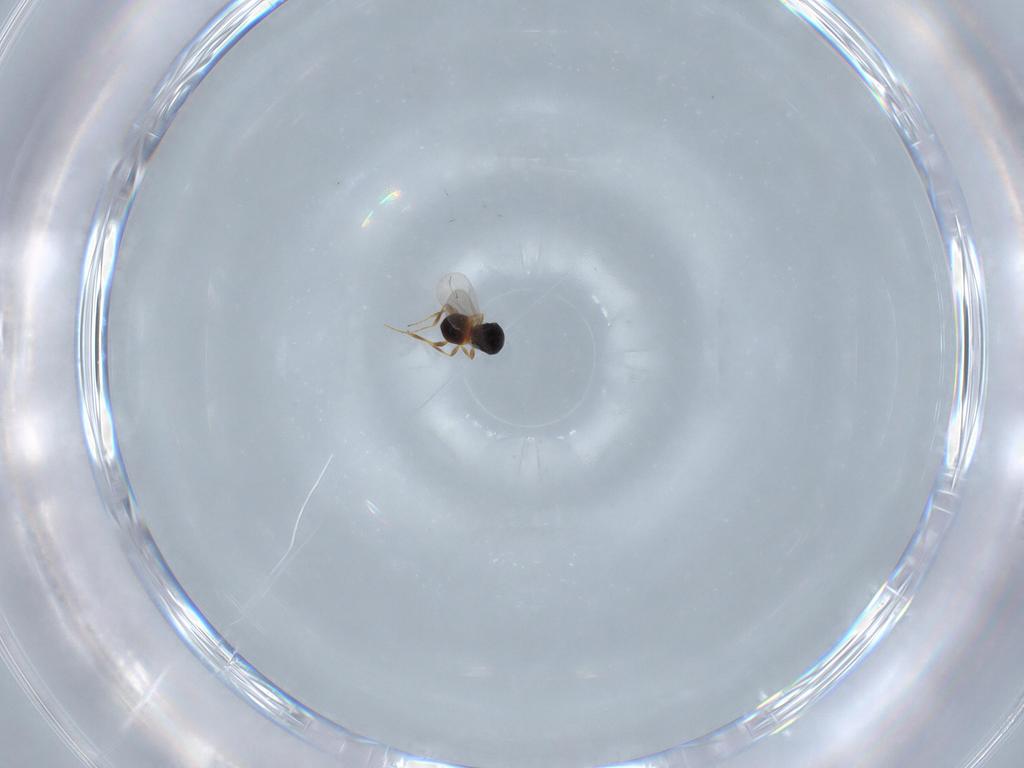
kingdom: Animalia
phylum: Arthropoda
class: Insecta
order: Hymenoptera
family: Platygastridae
